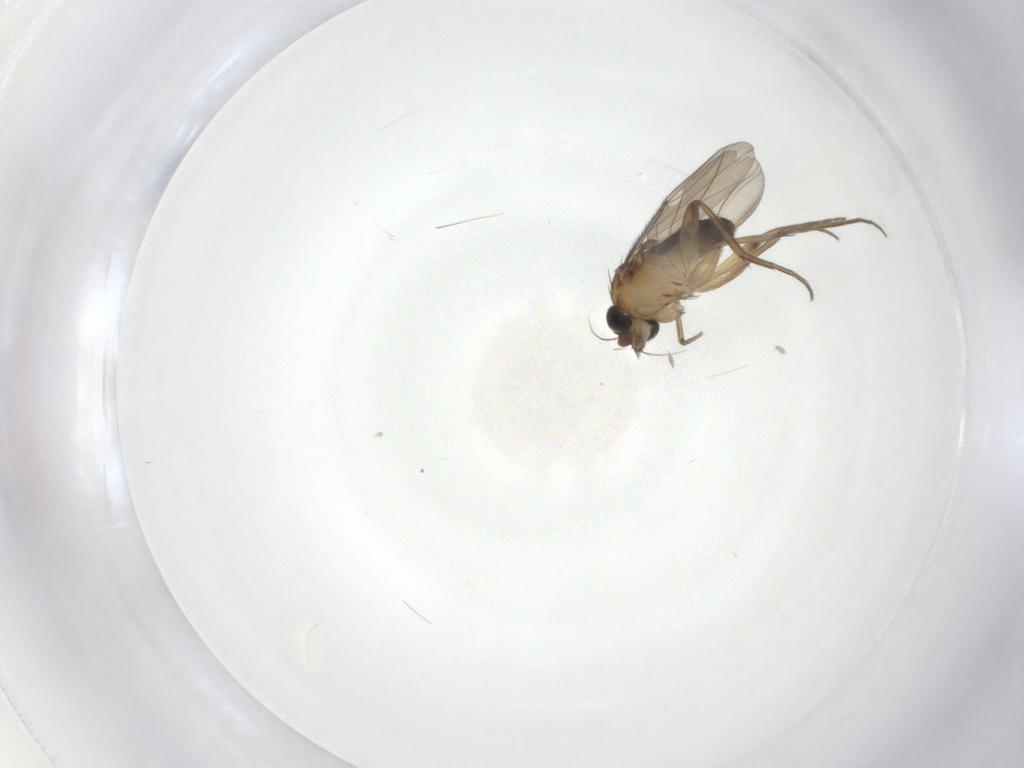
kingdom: Animalia
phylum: Arthropoda
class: Insecta
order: Diptera
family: Phoridae
